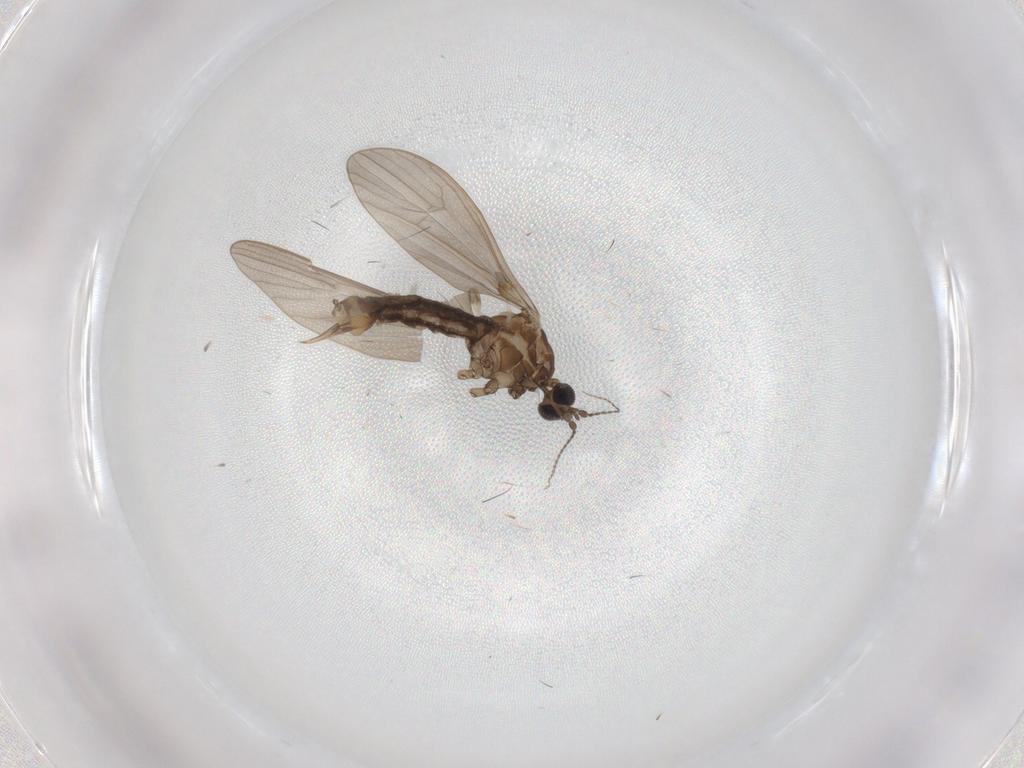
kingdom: Animalia
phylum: Arthropoda
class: Insecta
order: Diptera
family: Limoniidae
